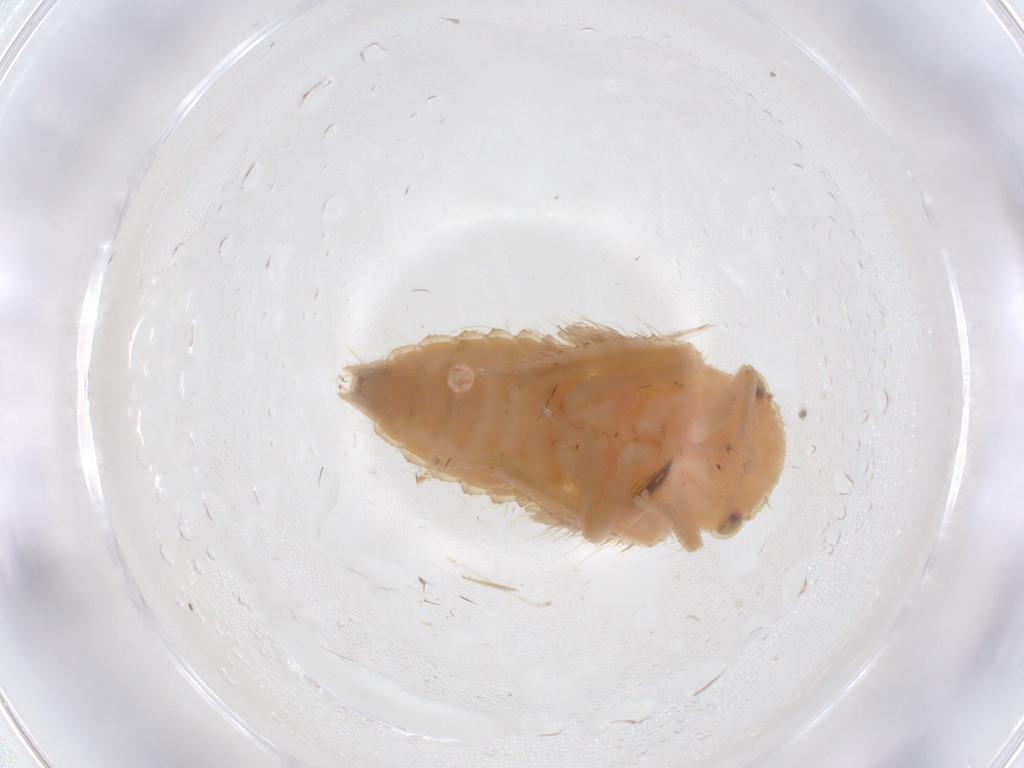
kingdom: Animalia
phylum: Arthropoda
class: Insecta
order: Hemiptera
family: Cicadellidae
